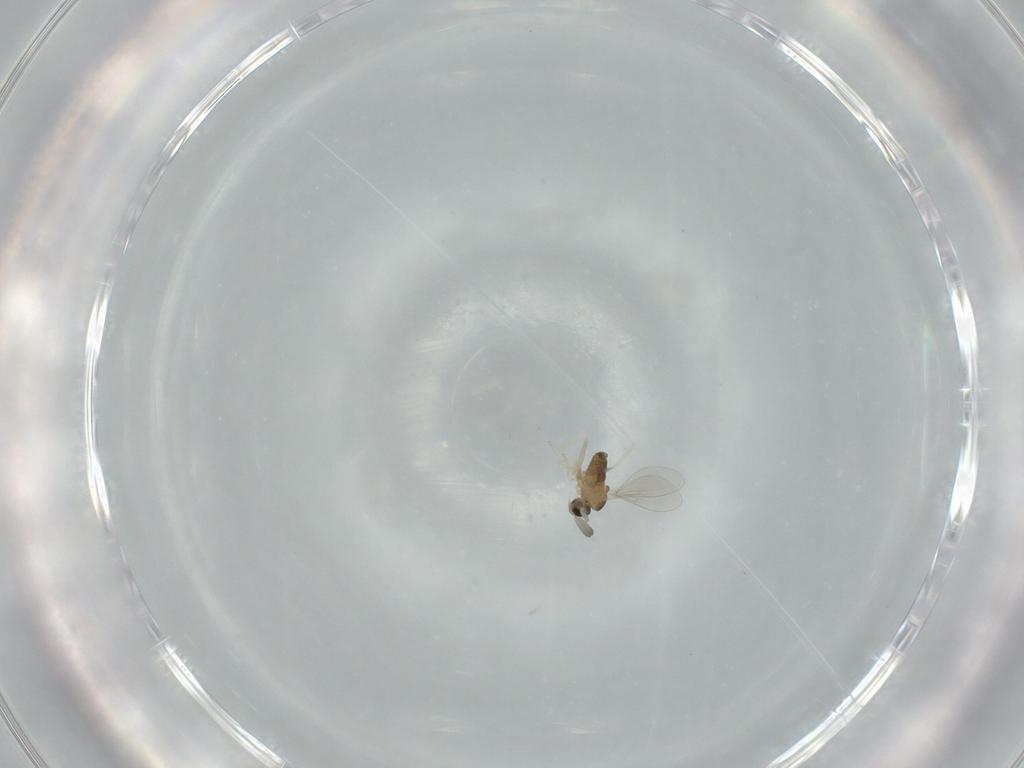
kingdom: Animalia
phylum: Arthropoda
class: Insecta
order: Diptera
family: Cecidomyiidae
